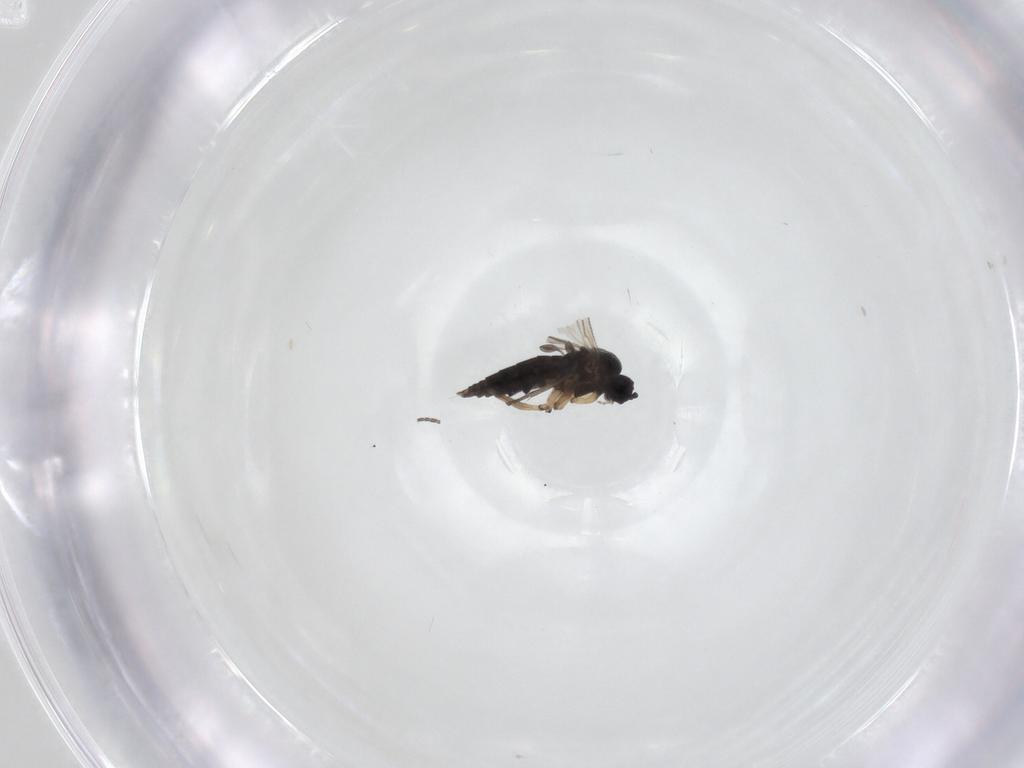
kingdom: Animalia
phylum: Arthropoda
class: Insecta
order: Diptera
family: Sciaridae
